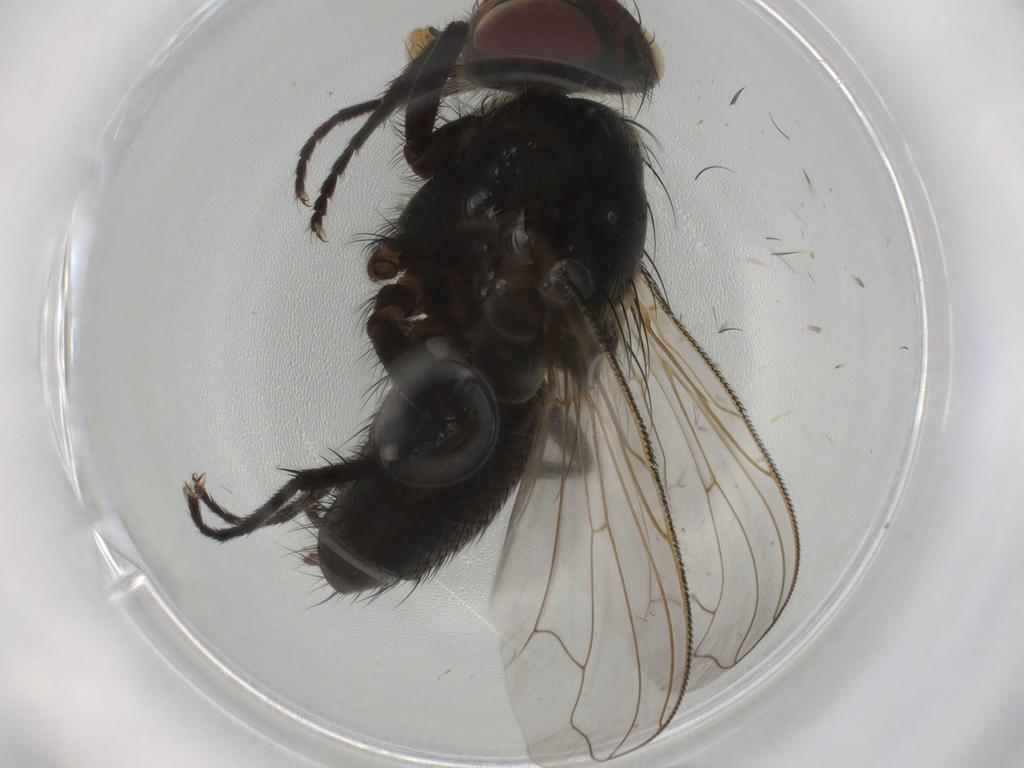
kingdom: Animalia
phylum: Arthropoda
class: Insecta
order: Diptera
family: Polleniidae
